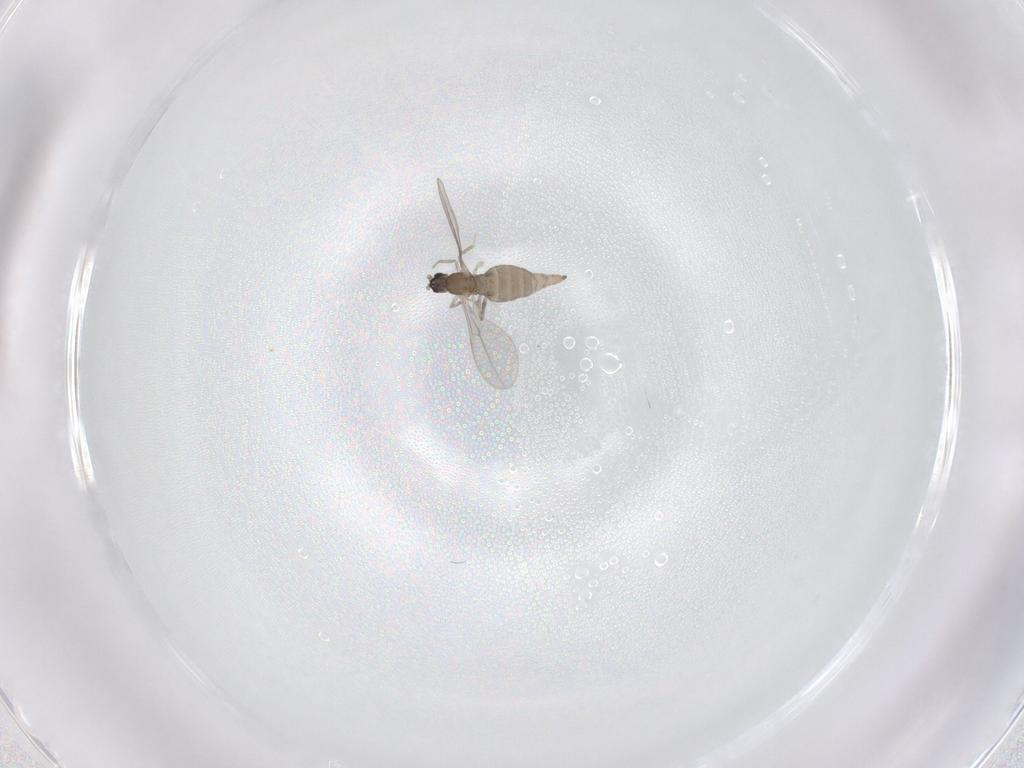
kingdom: Animalia
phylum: Arthropoda
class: Insecta
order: Diptera
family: Cecidomyiidae
